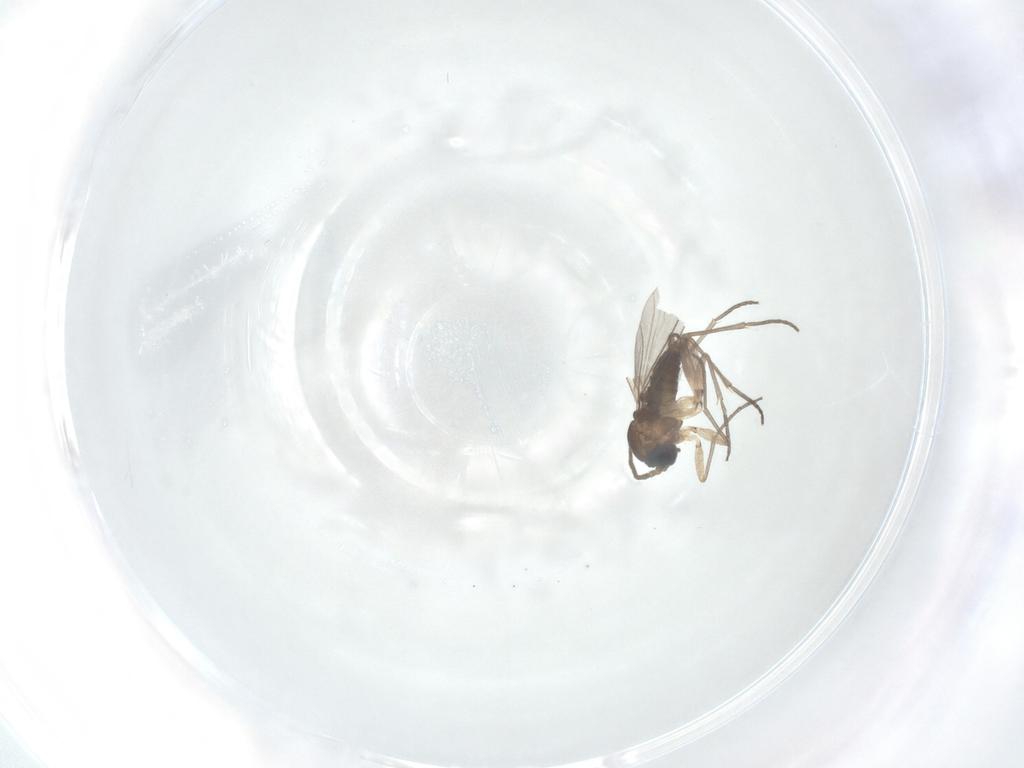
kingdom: Animalia
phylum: Arthropoda
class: Insecta
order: Diptera
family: Sciaridae
